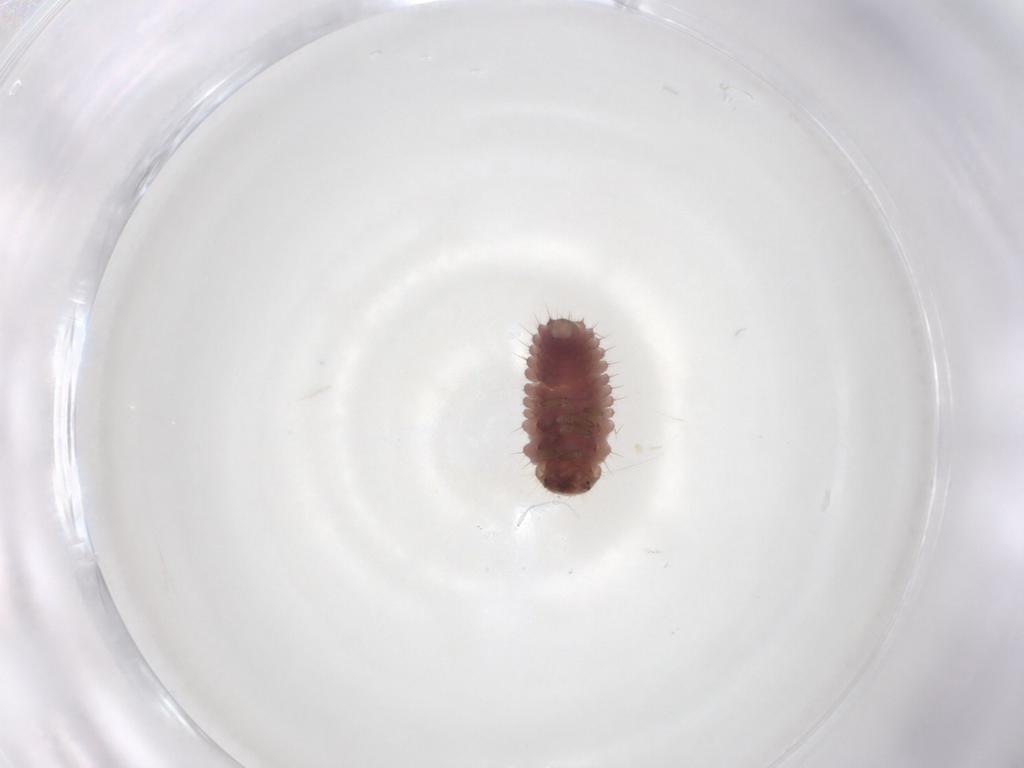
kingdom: Animalia
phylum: Arthropoda
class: Insecta
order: Coleoptera
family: Coccinellidae
